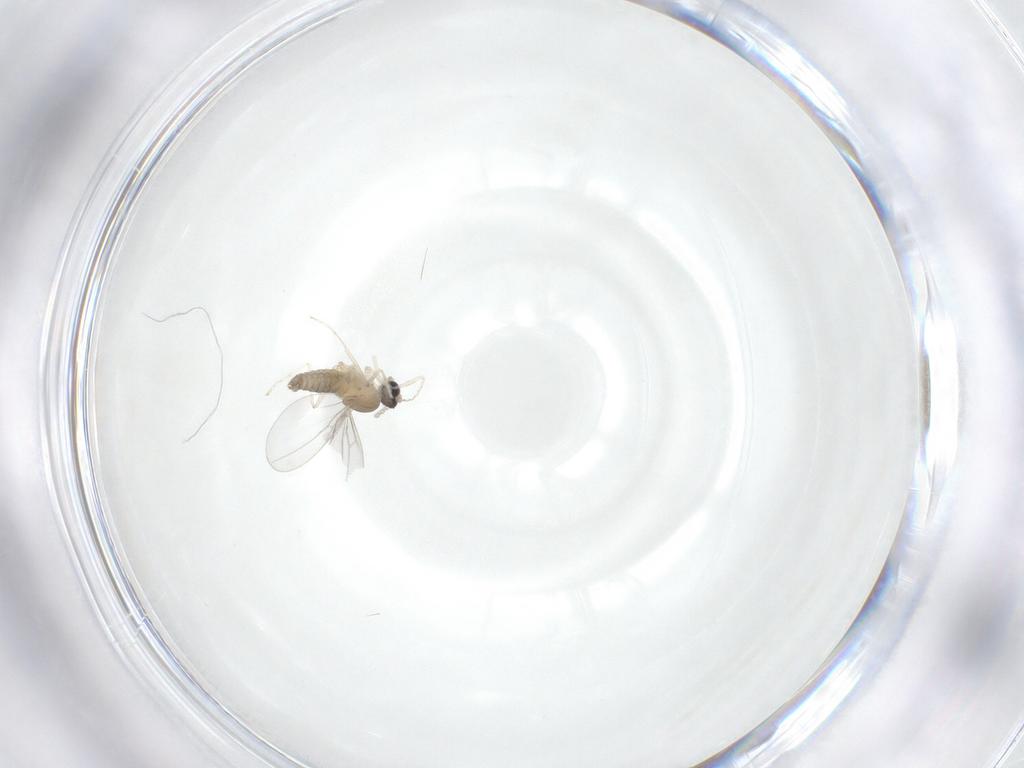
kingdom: Animalia
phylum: Arthropoda
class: Insecta
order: Diptera
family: Cecidomyiidae
